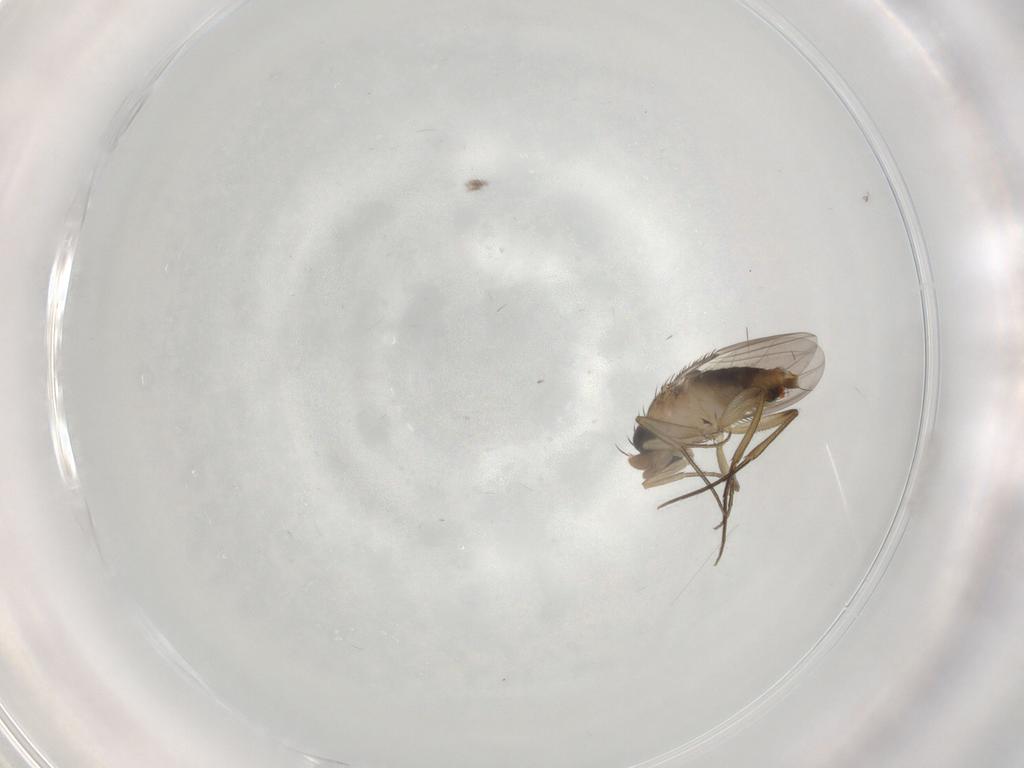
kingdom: Animalia
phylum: Arthropoda
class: Insecta
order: Diptera
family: Phoridae
